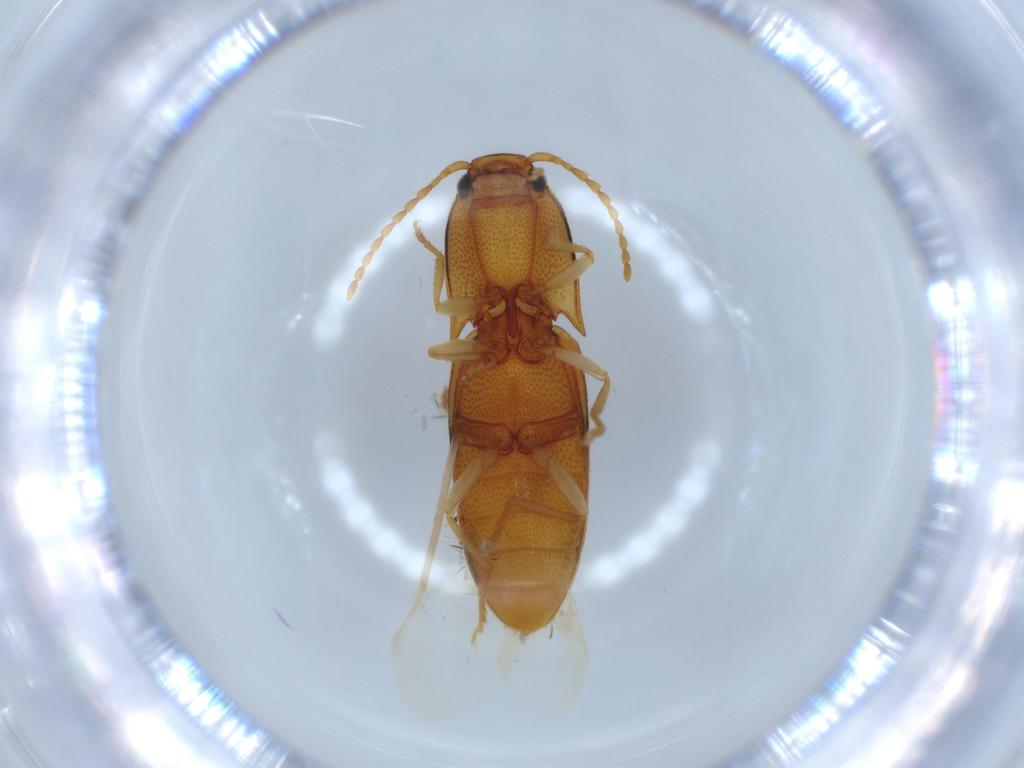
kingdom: Animalia
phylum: Arthropoda
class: Insecta
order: Coleoptera
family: Elateridae
